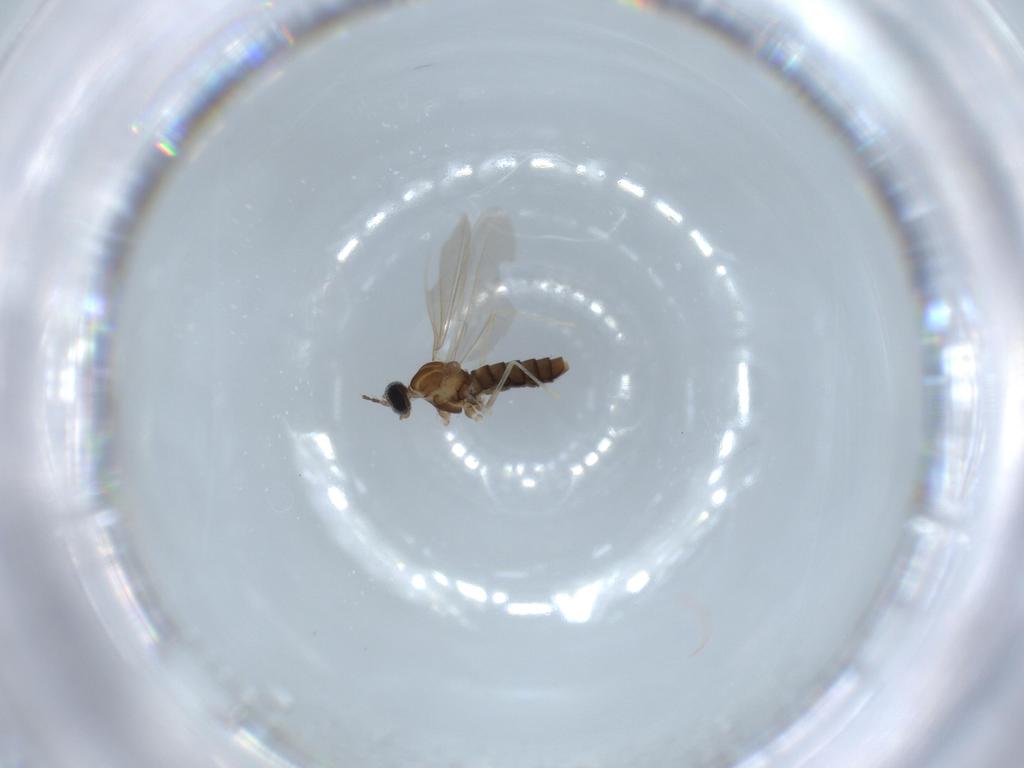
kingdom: Animalia
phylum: Arthropoda
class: Insecta
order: Diptera
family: Cecidomyiidae
